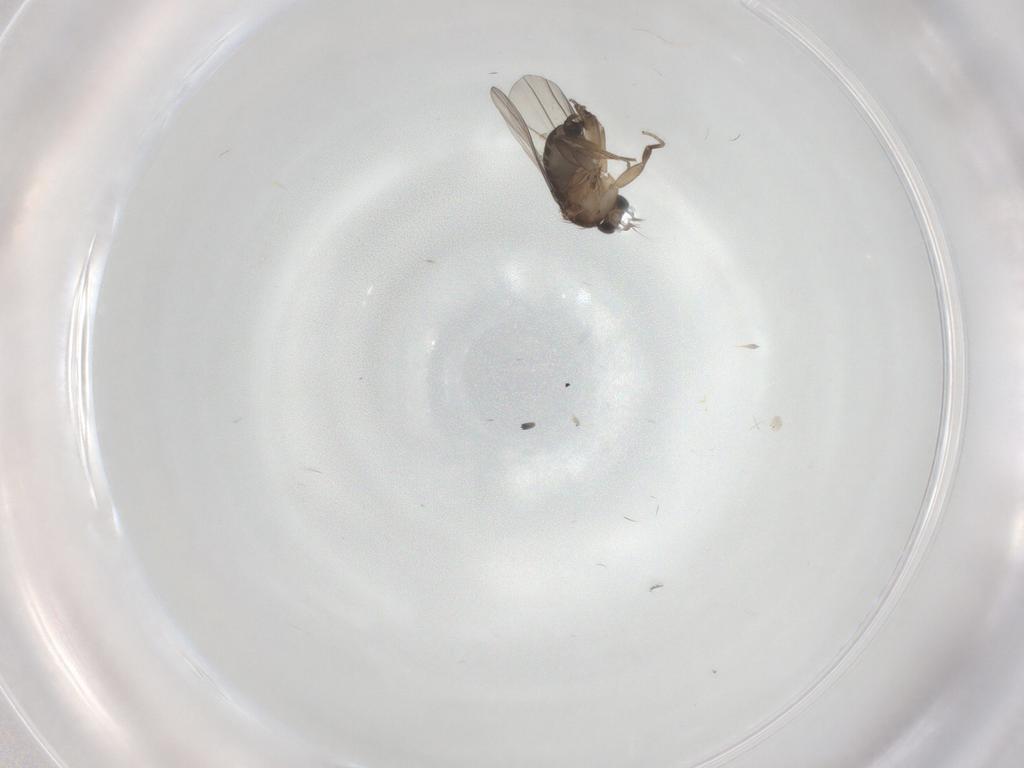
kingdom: Animalia
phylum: Arthropoda
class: Insecta
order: Diptera
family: Phoridae
